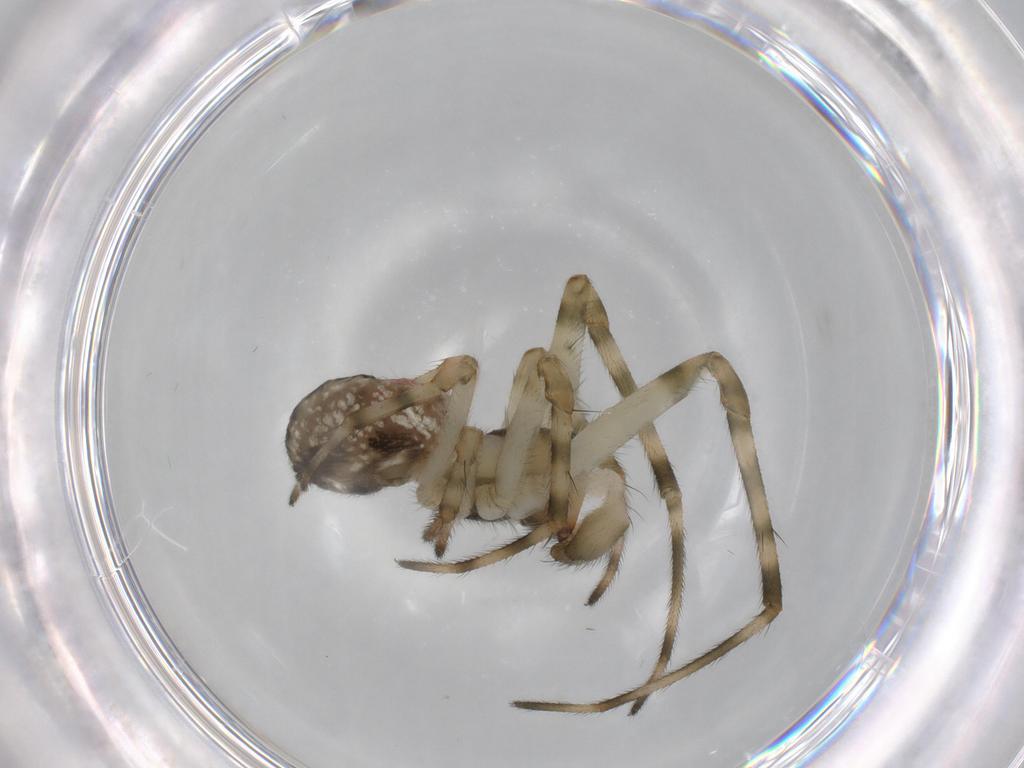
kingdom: Animalia
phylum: Arthropoda
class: Arachnida
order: Araneae
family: Tetragnathidae
